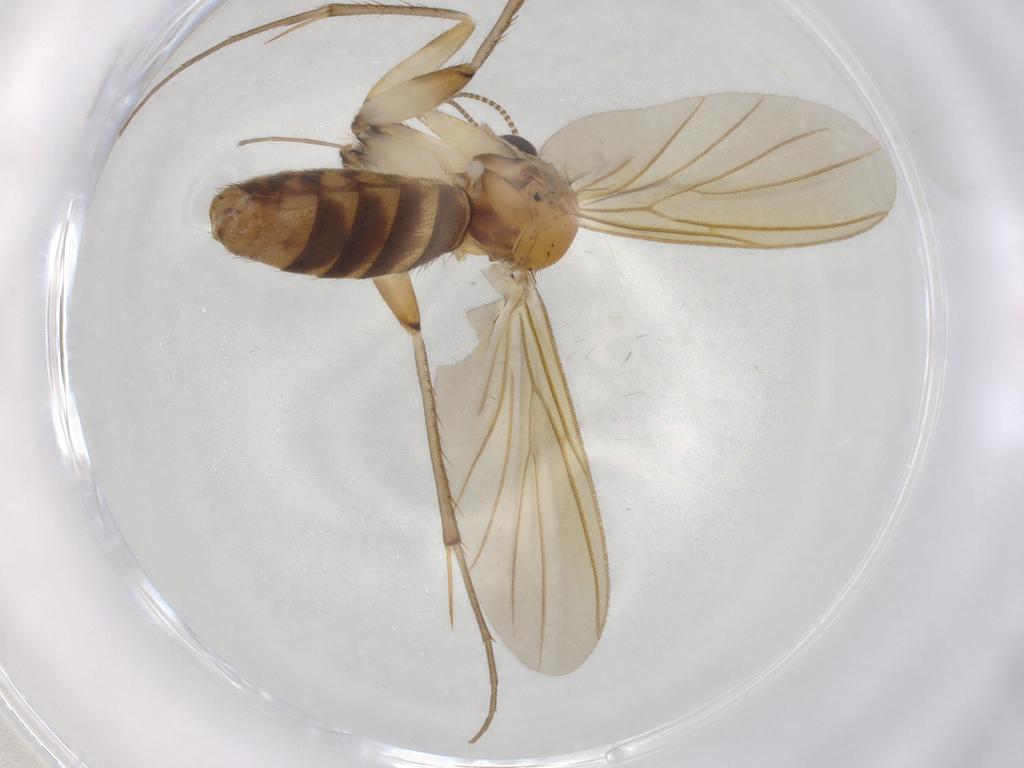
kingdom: Animalia
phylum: Arthropoda
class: Insecta
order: Diptera
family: Mycetophilidae
